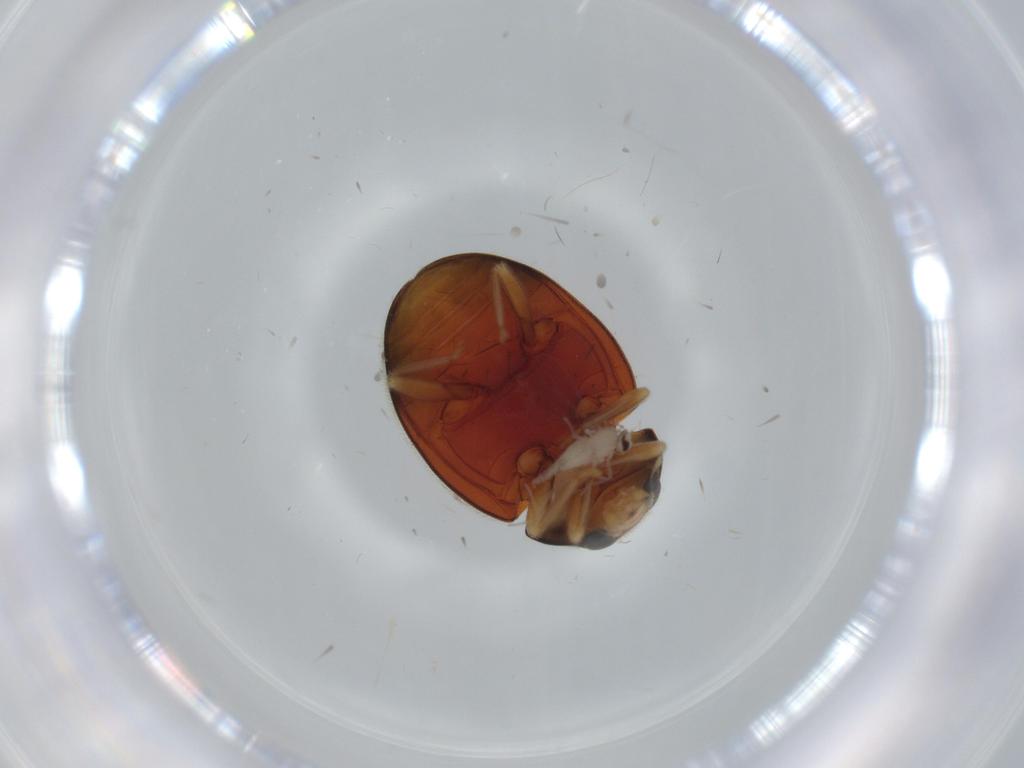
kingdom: Animalia
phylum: Arthropoda
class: Insecta
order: Coleoptera
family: Coccinellidae
